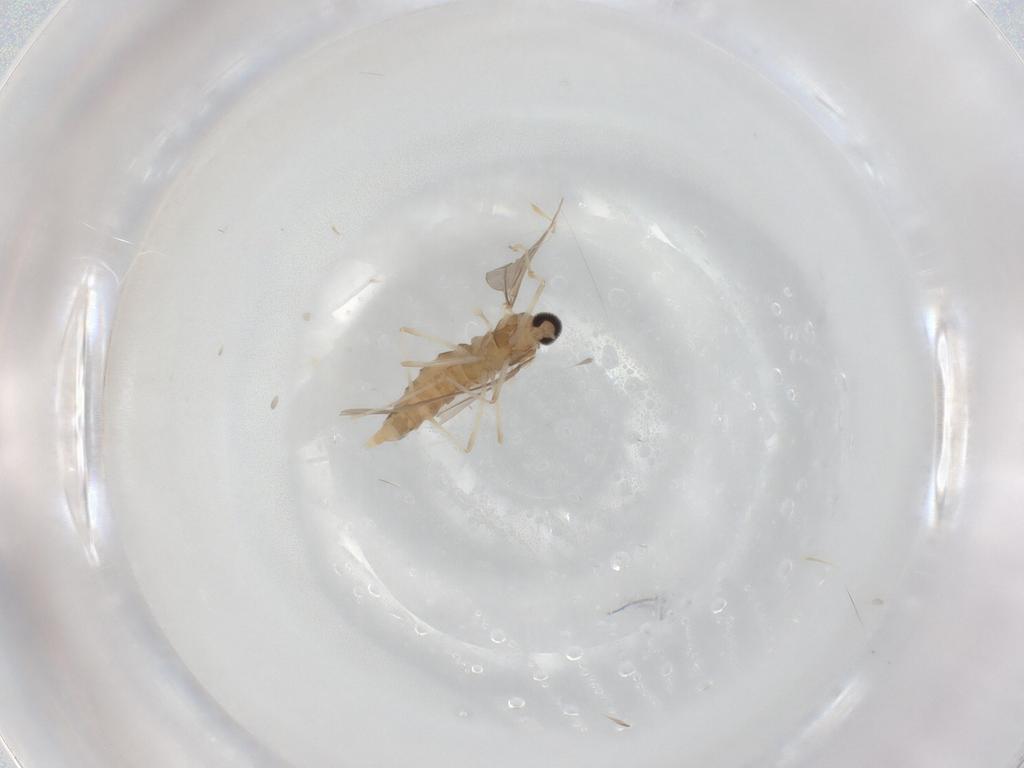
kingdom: Animalia
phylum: Arthropoda
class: Insecta
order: Diptera
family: Cecidomyiidae
